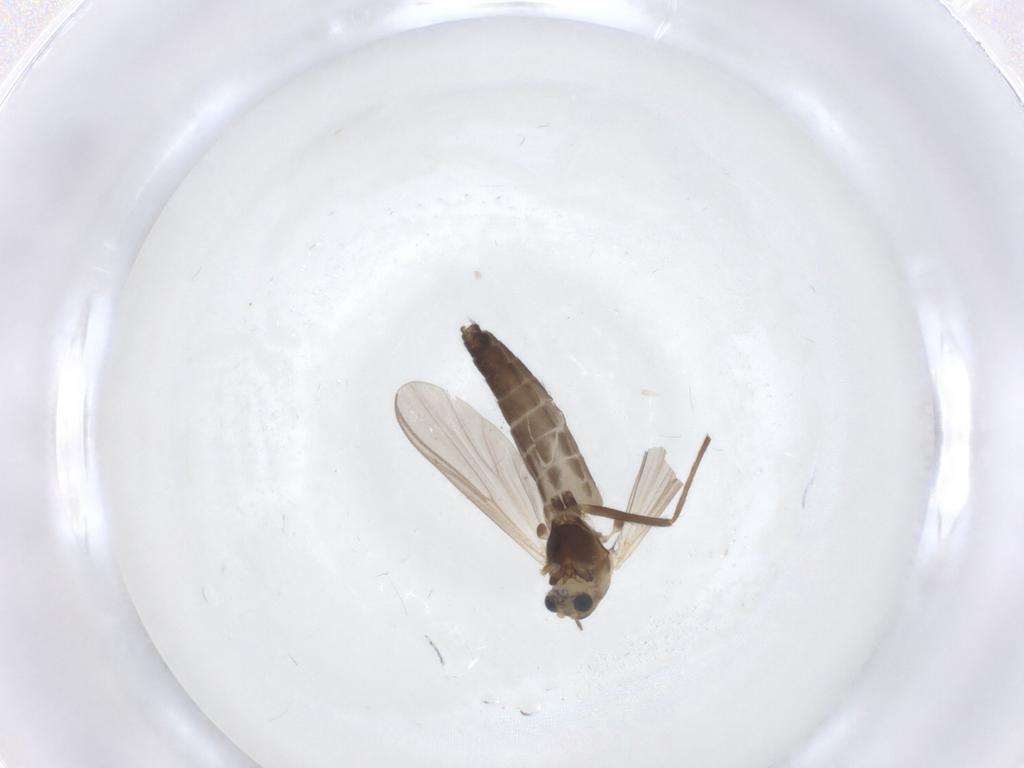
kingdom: Animalia
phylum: Arthropoda
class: Insecta
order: Diptera
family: Chironomidae
